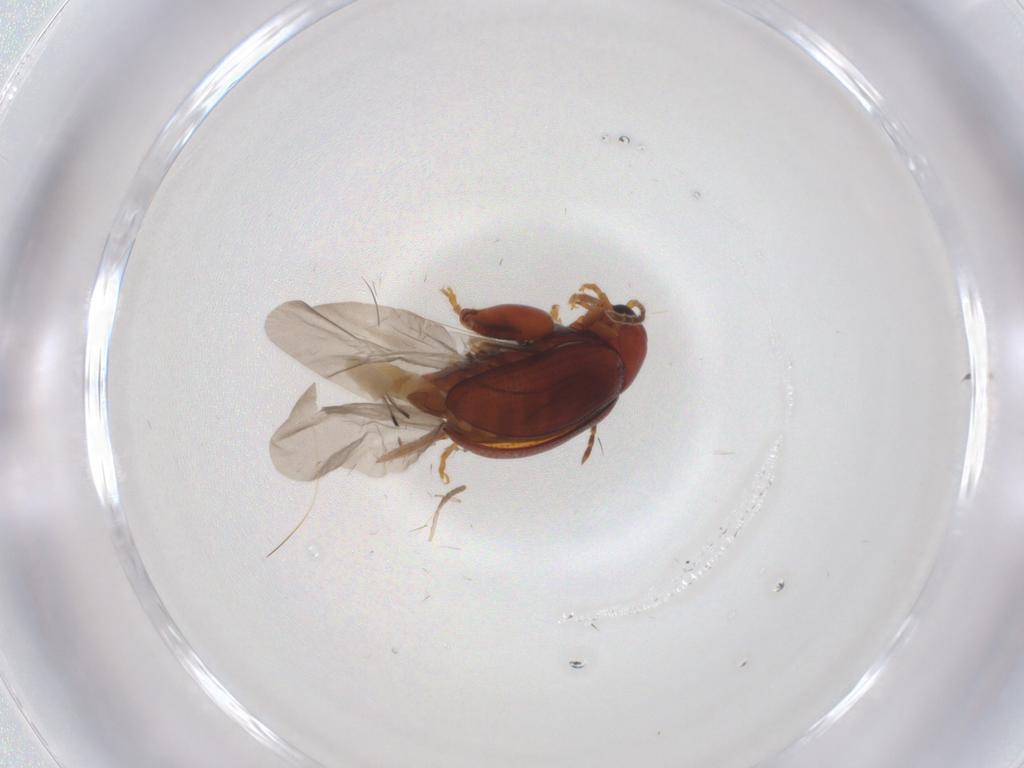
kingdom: Animalia
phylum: Arthropoda
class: Insecta
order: Coleoptera
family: Chrysomelidae
